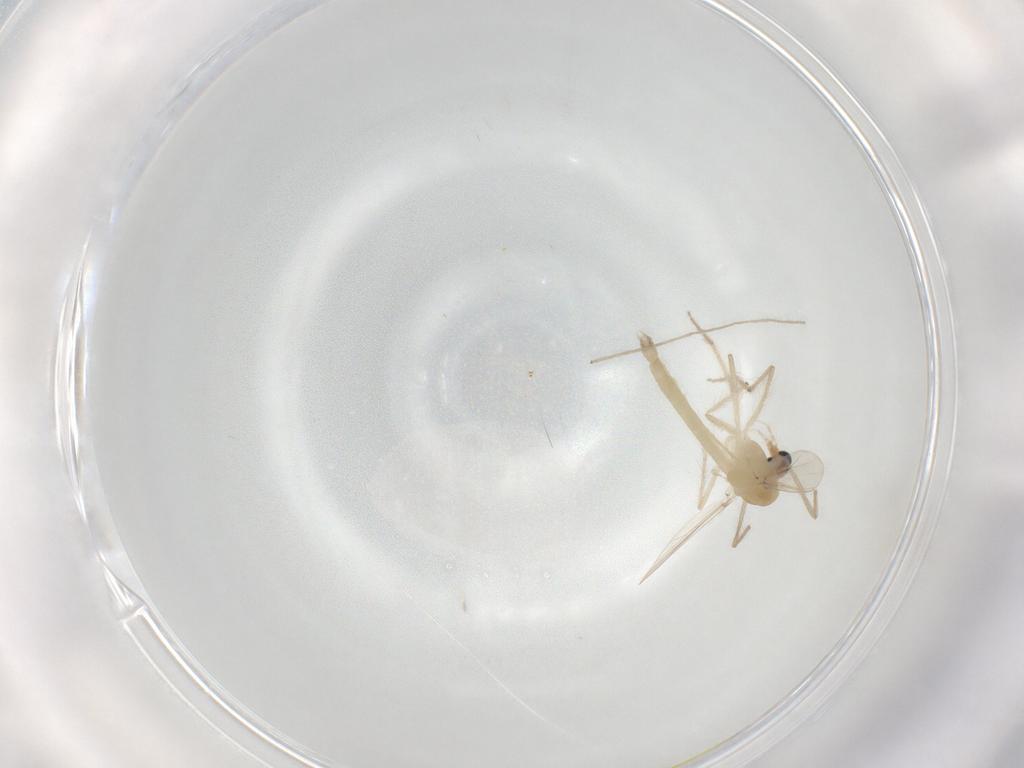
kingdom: Animalia
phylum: Arthropoda
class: Insecta
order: Diptera
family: Chironomidae
